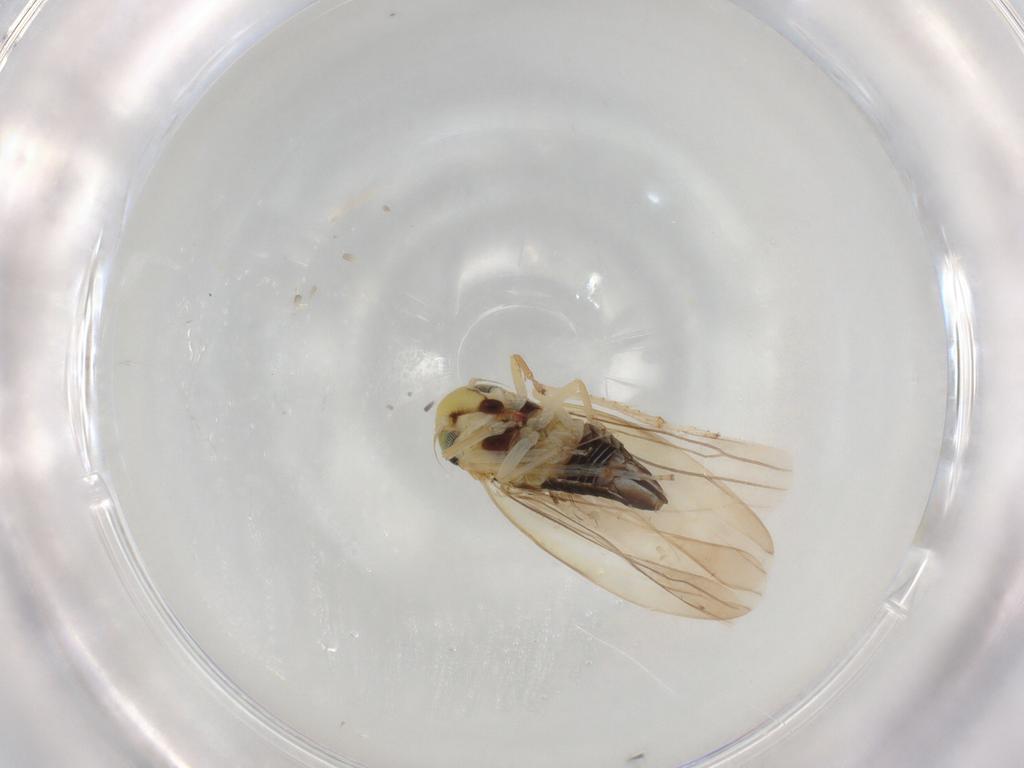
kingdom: Animalia
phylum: Arthropoda
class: Insecta
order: Hemiptera
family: Cicadellidae
